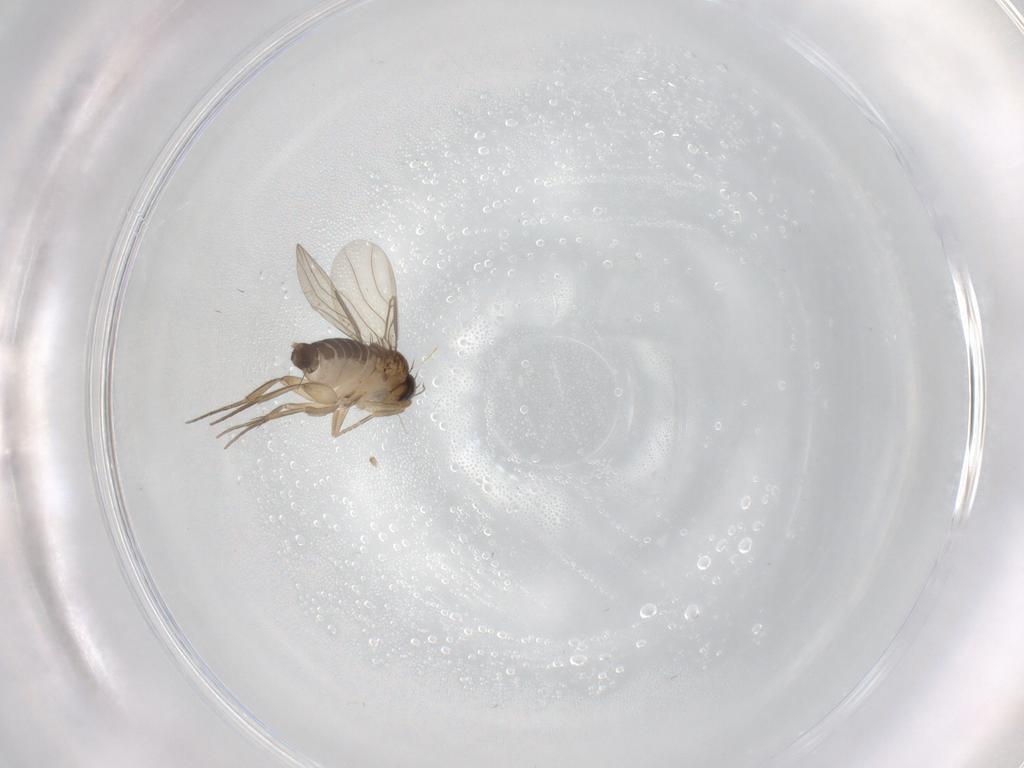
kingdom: Animalia
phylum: Arthropoda
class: Insecta
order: Diptera
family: Phoridae
